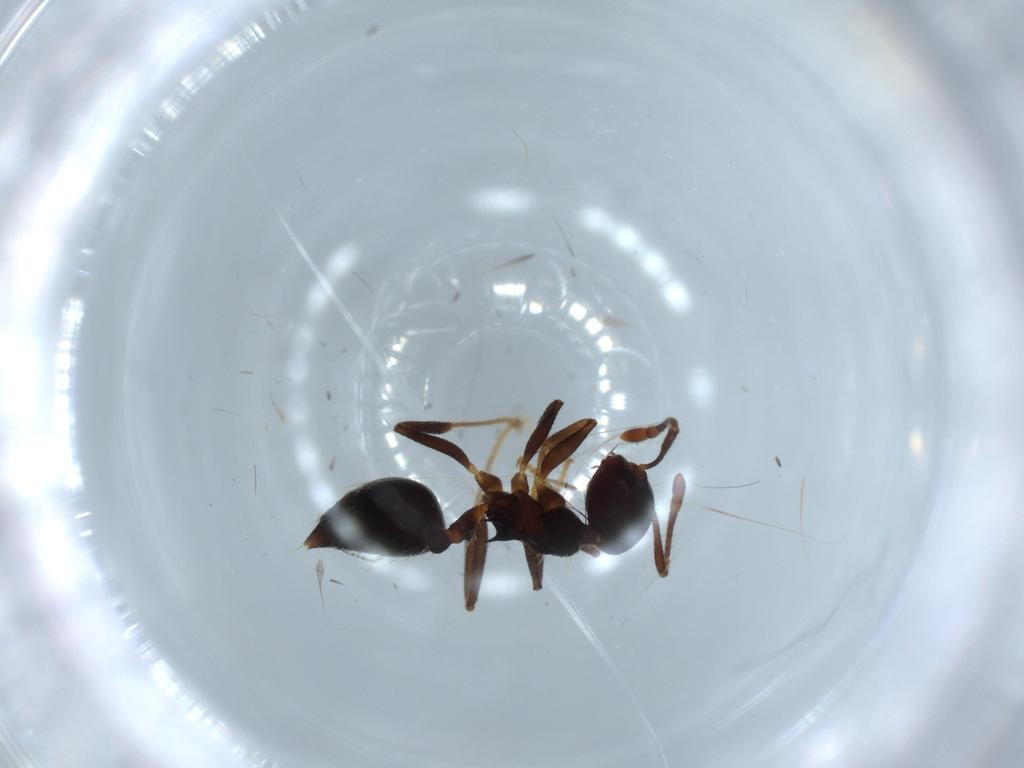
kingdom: Animalia
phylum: Arthropoda
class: Insecta
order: Hymenoptera
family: Formicidae
